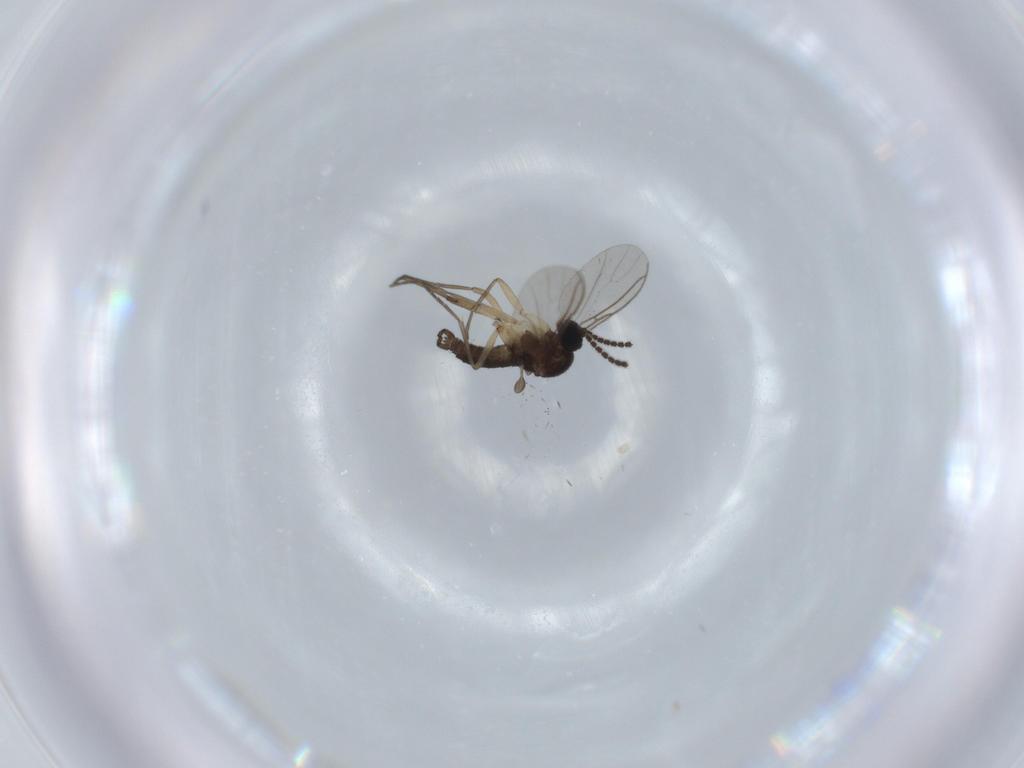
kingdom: Animalia
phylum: Arthropoda
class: Insecta
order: Diptera
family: Sciaridae
